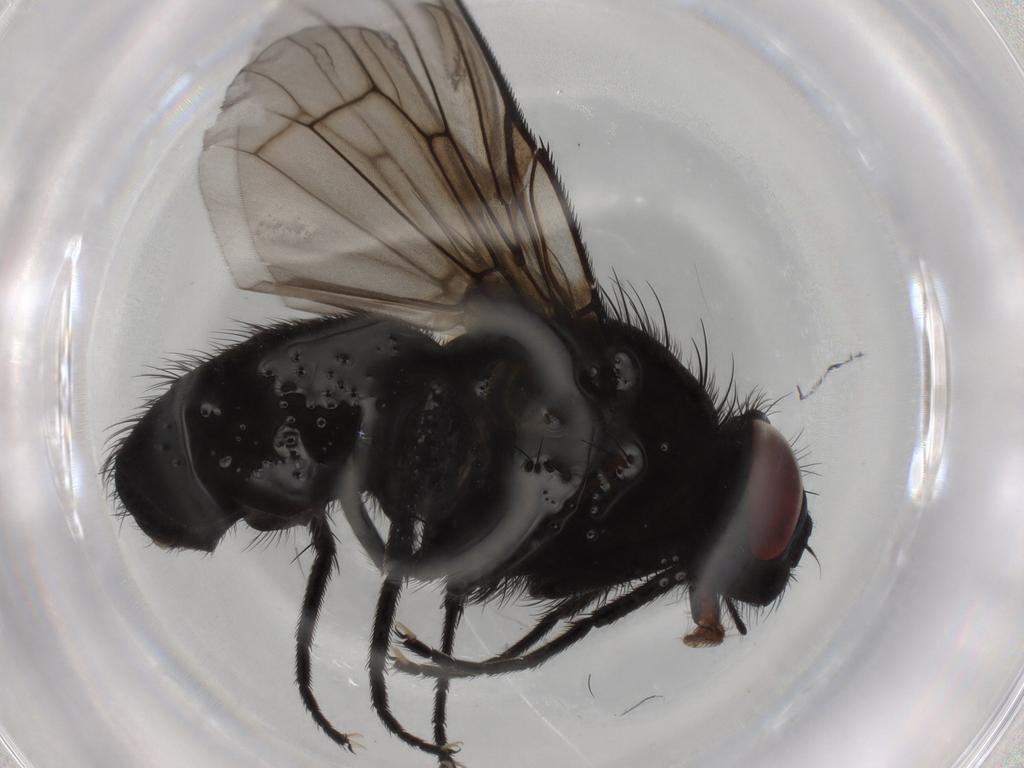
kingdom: Animalia
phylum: Arthropoda
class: Insecta
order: Diptera
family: Muscidae
